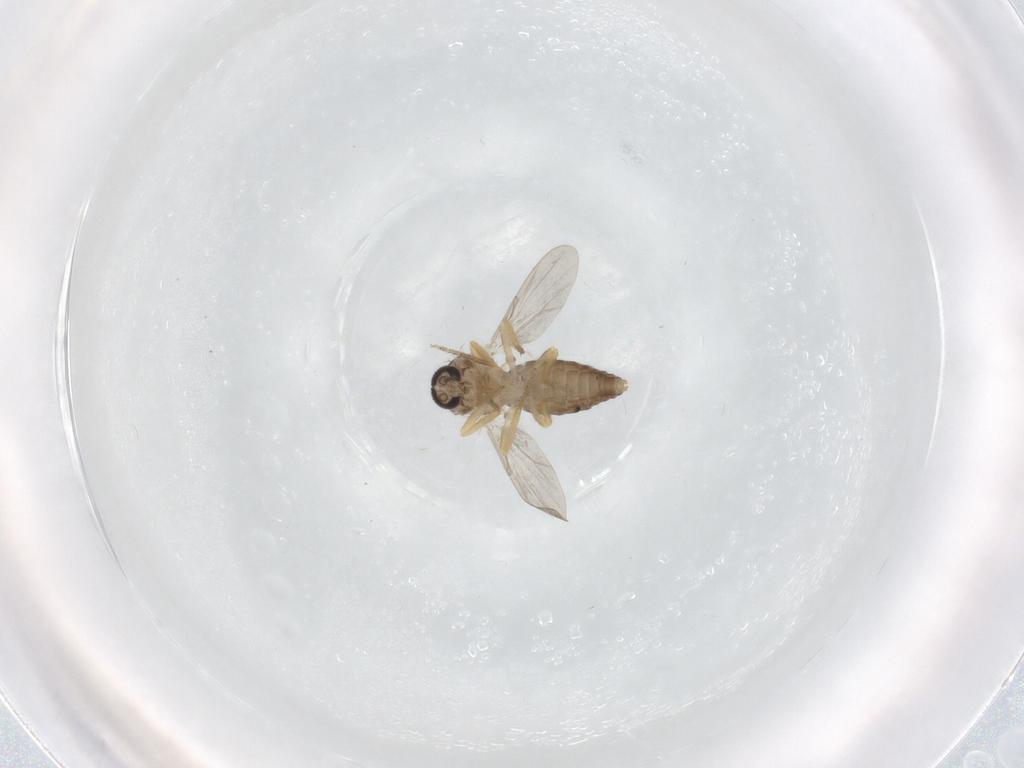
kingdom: Animalia
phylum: Arthropoda
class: Insecta
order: Diptera
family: Ceratopogonidae
